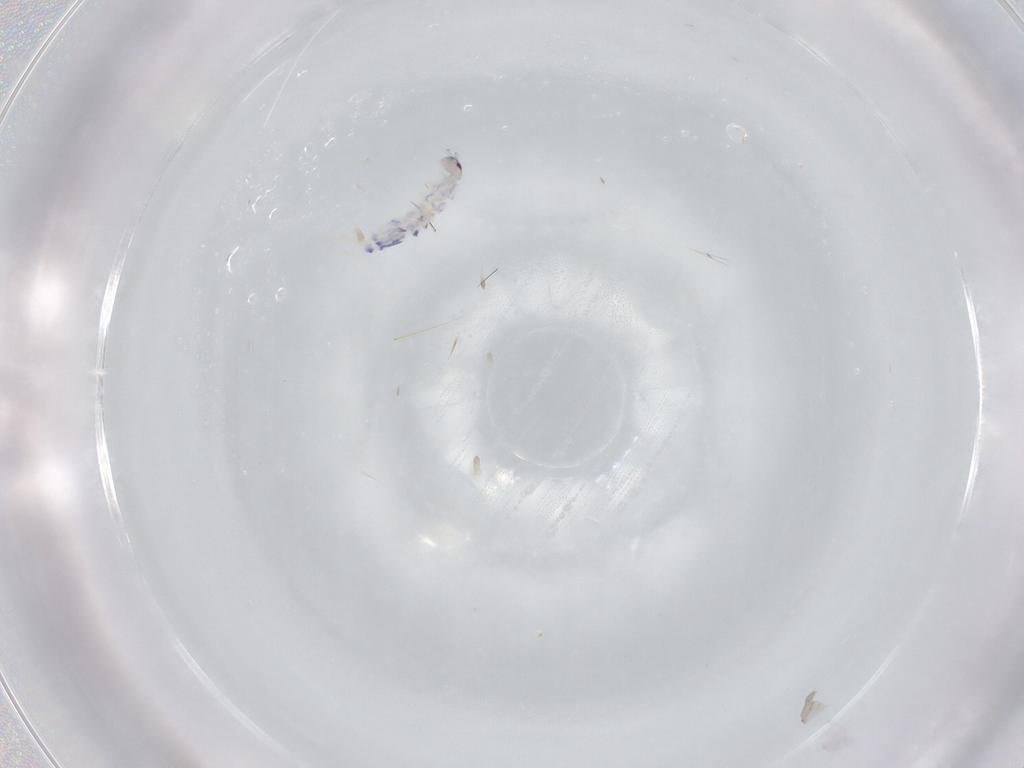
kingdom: Animalia
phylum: Arthropoda
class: Collembola
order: Entomobryomorpha
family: Entomobryidae
